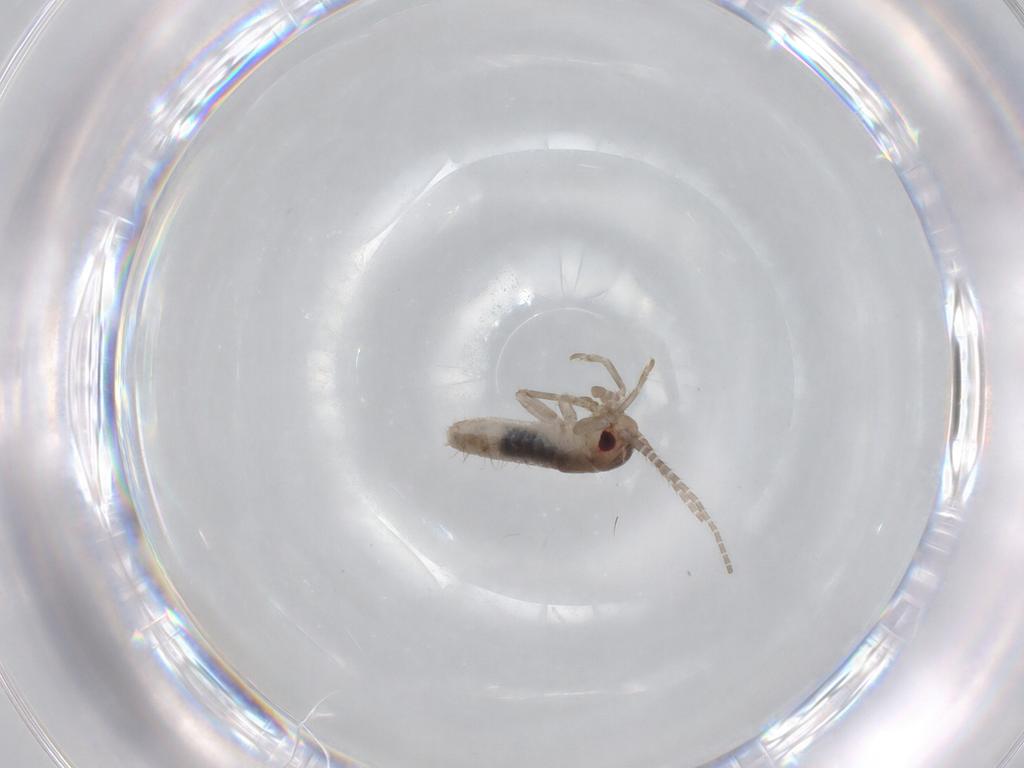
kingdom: Animalia
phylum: Arthropoda
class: Insecta
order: Orthoptera
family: Mogoplistidae
